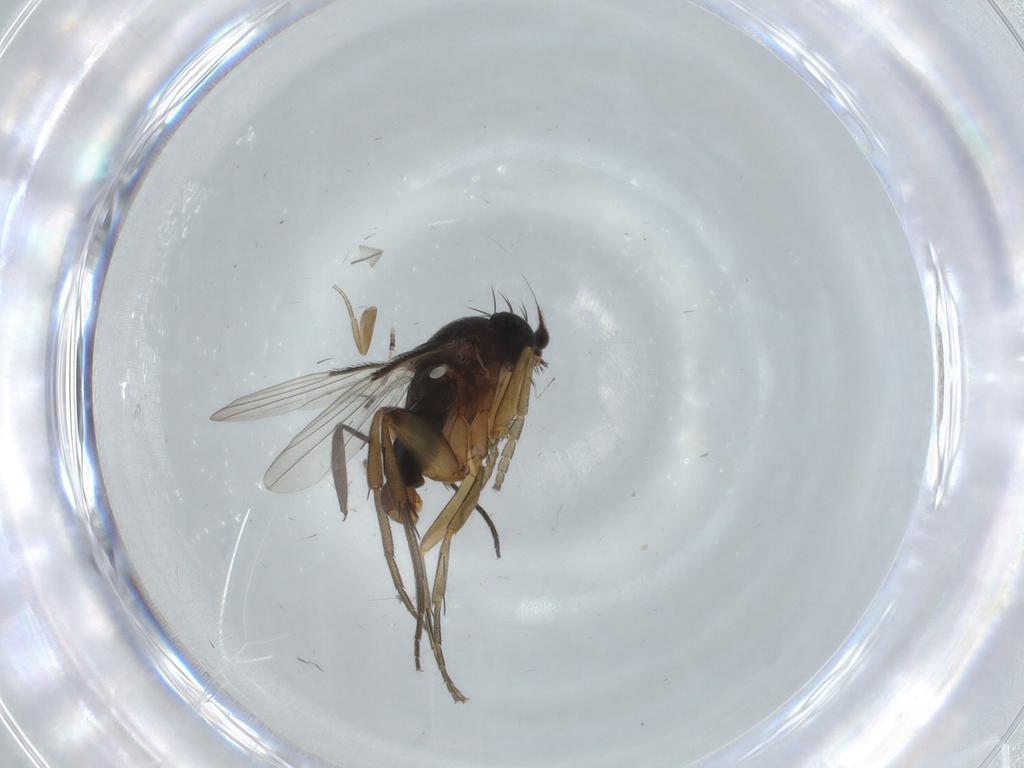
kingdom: Animalia
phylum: Arthropoda
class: Insecta
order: Diptera
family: Phoridae
